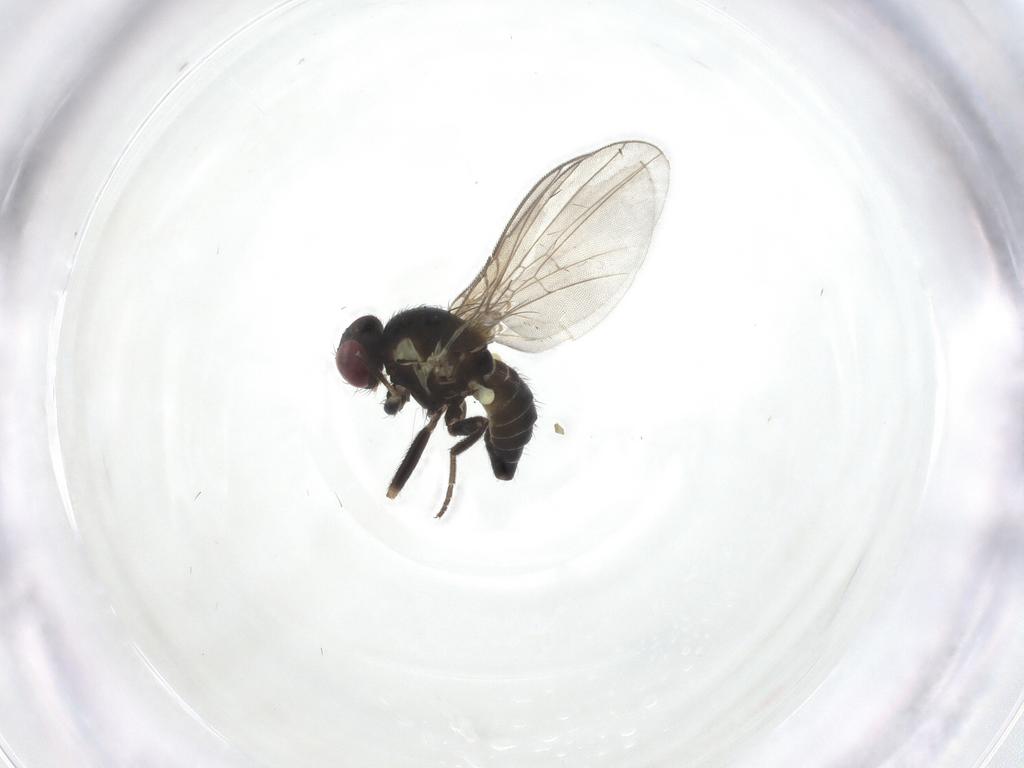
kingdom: Animalia
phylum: Arthropoda
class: Insecta
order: Diptera
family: Agromyzidae
